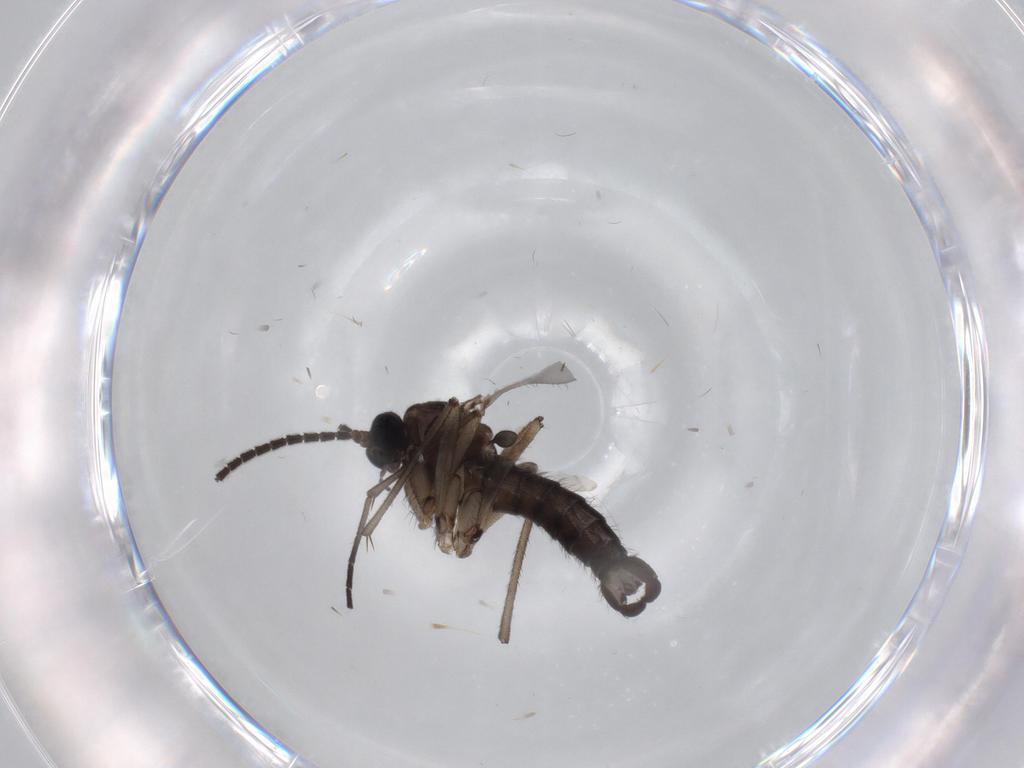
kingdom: Animalia
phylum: Arthropoda
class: Insecta
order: Diptera
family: Sciaridae
